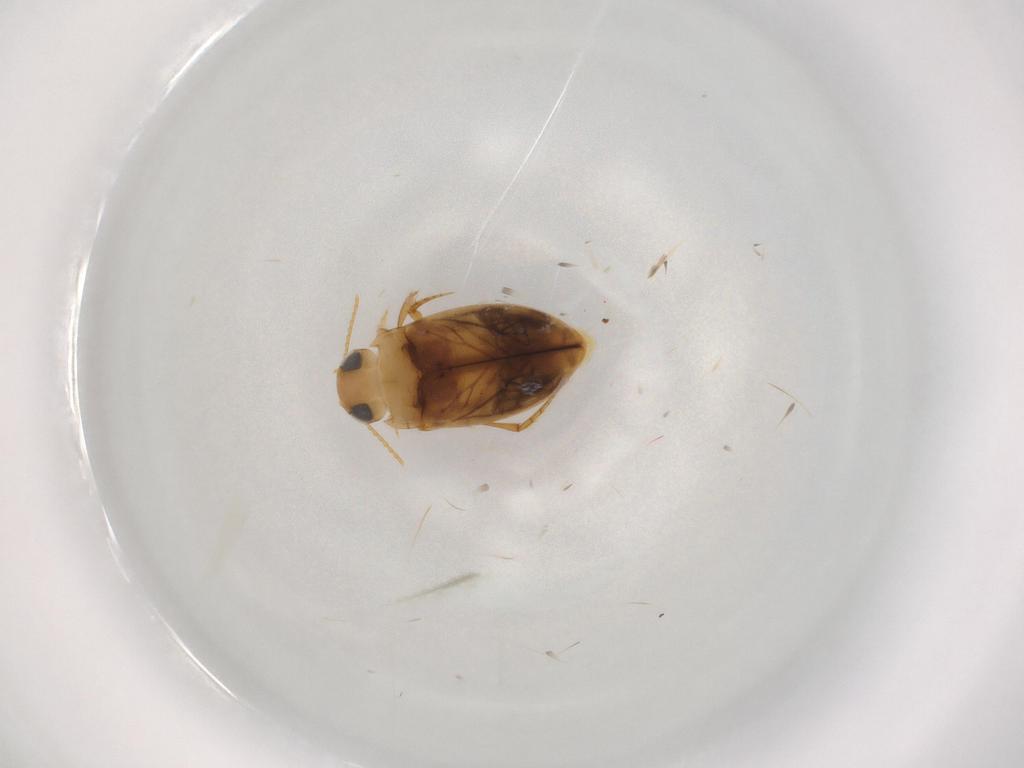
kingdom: Animalia
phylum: Arthropoda
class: Insecta
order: Coleoptera
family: Dytiscidae
